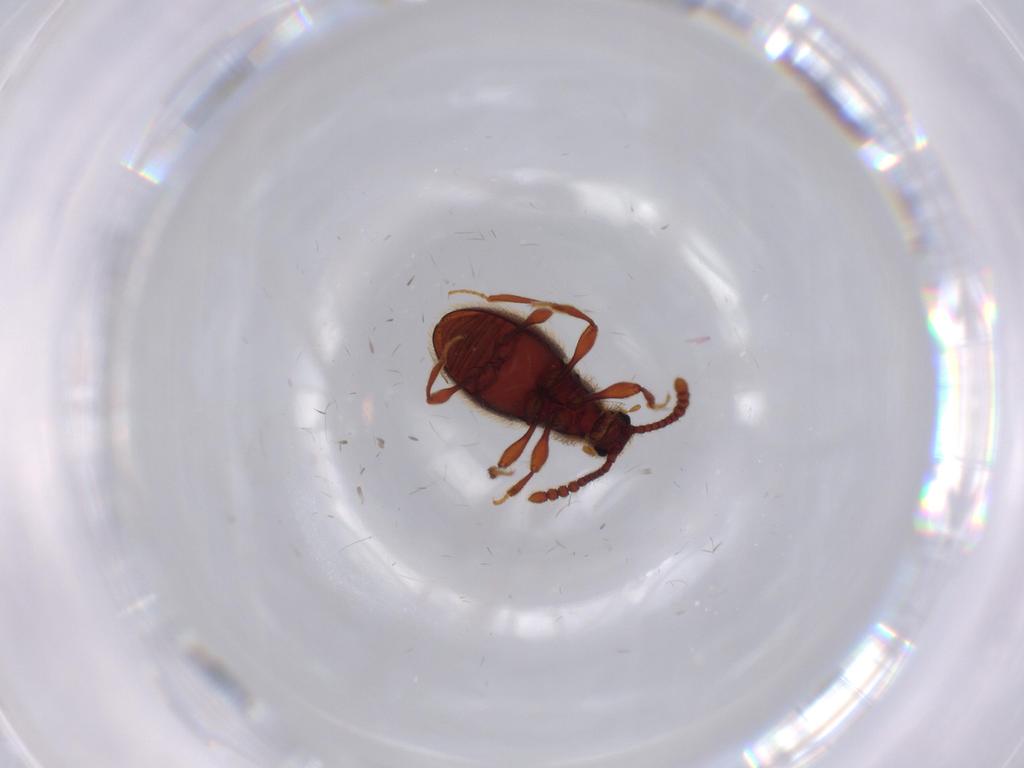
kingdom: Animalia
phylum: Arthropoda
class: Insecta
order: Coleoptera
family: Staphylinidae
